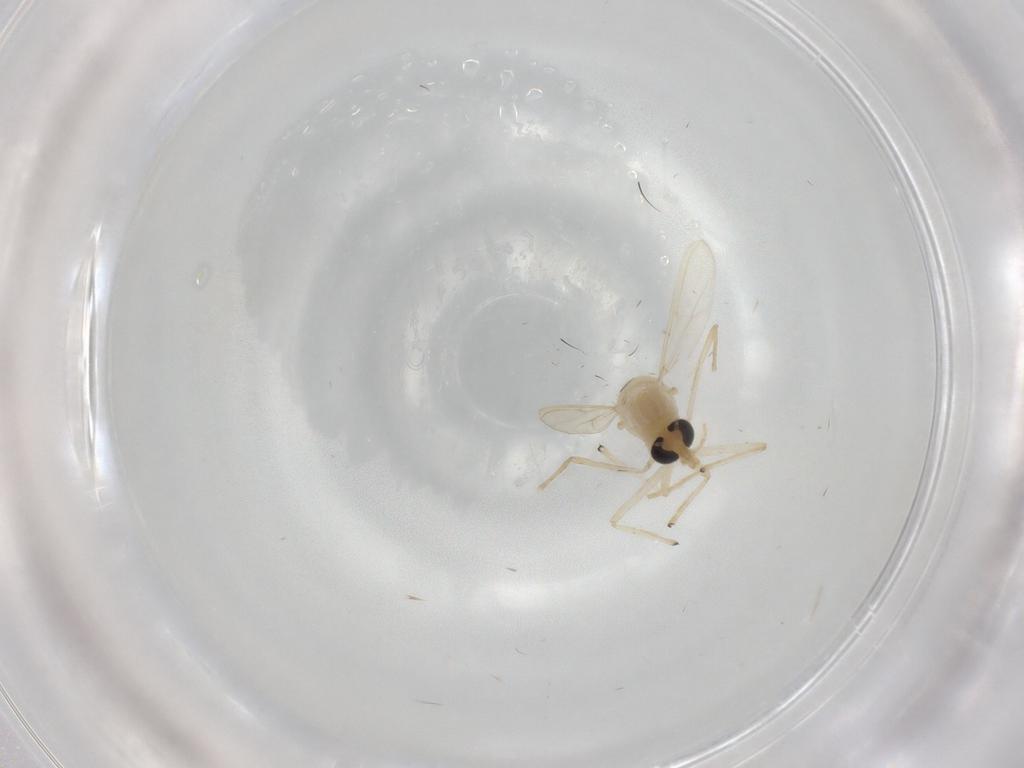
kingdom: Animalia
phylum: Arthropoda
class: Insecta
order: Diptera
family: Chironomidae
